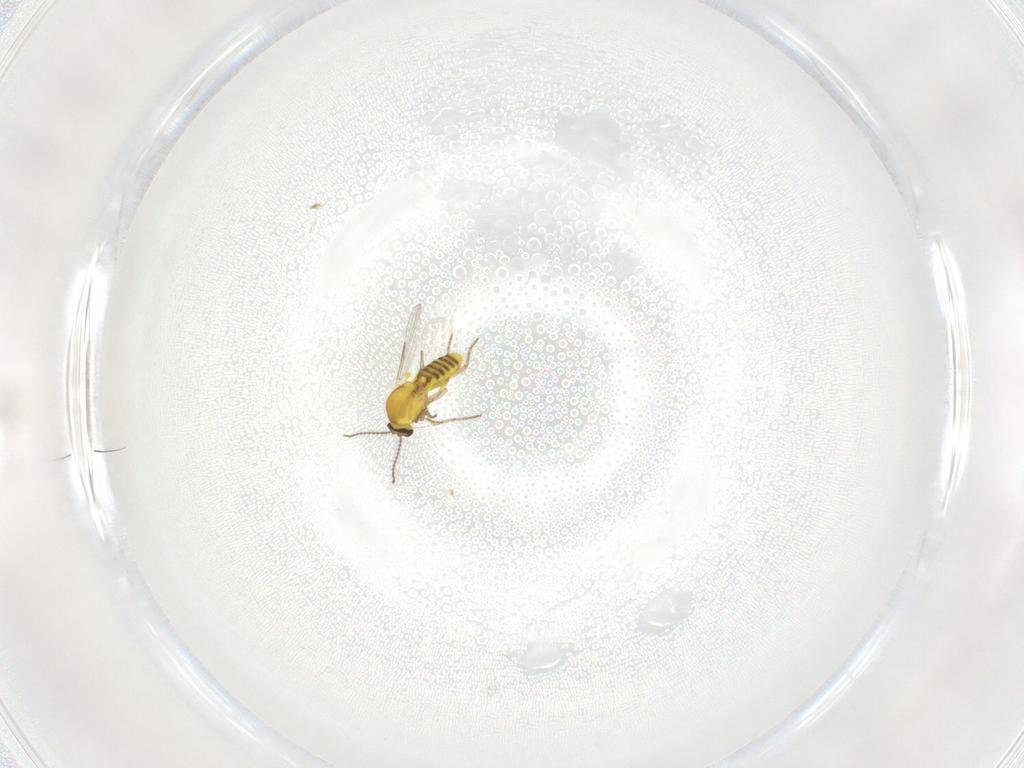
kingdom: Animalia
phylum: Arthropoda
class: Insecta
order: Diptera
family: Ceratopogonidae
